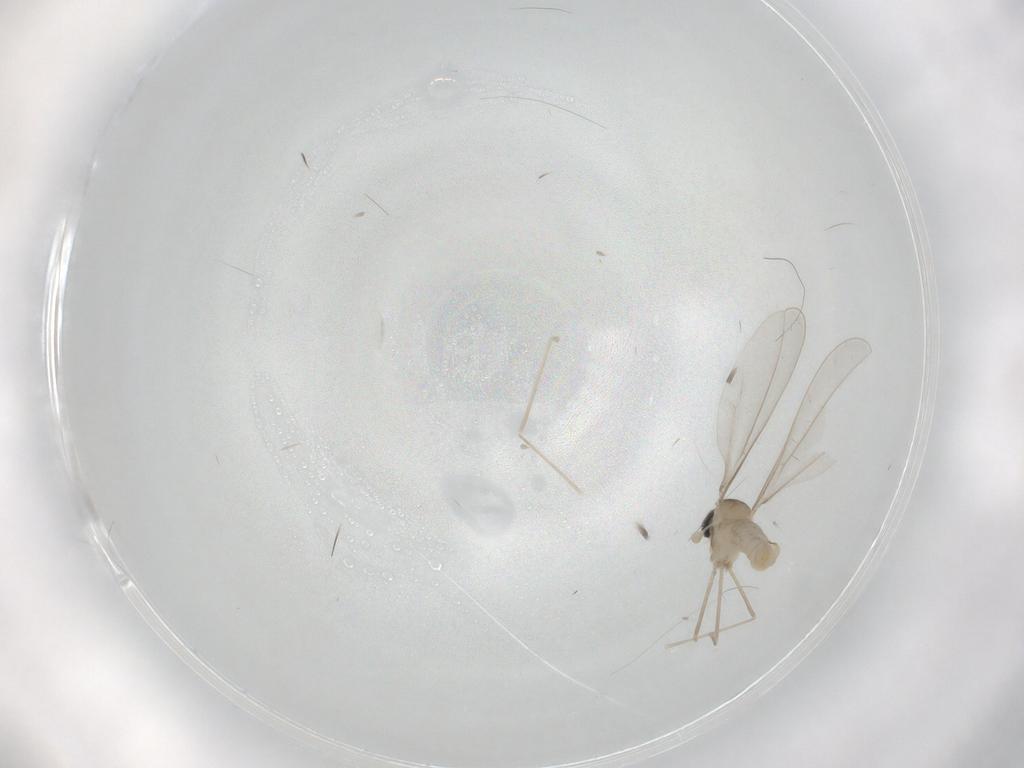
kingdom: Animalia
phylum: Arthropoda
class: Insecta
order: Diptera
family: Cecidomyiidae
